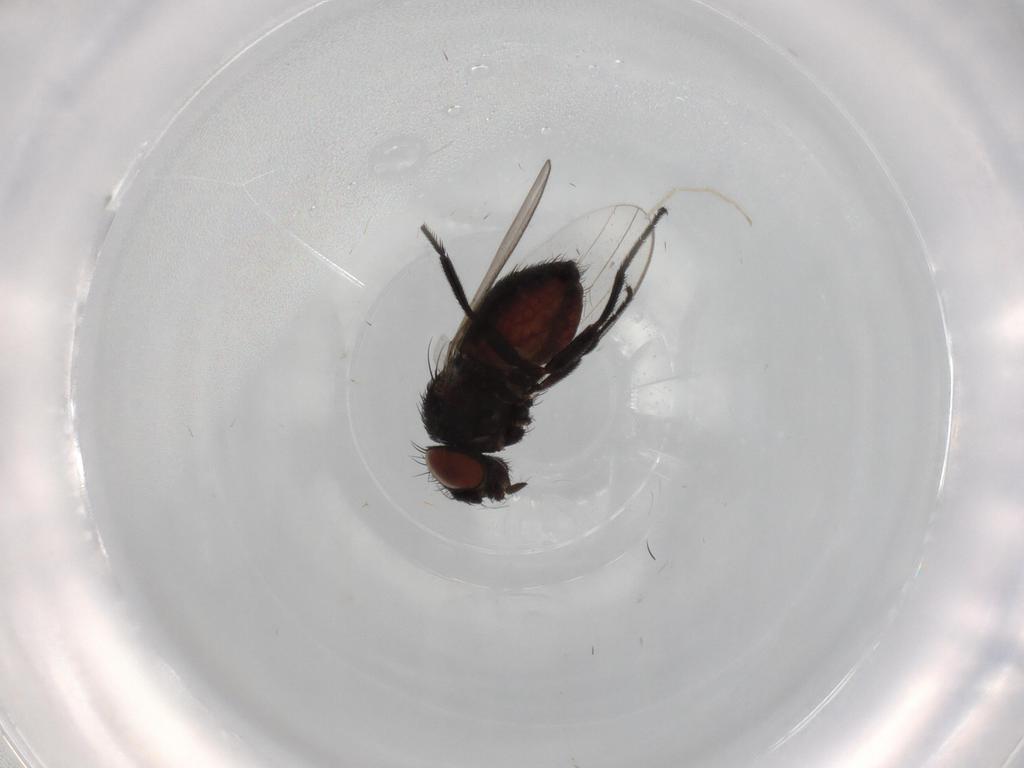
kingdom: Animalia
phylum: Arthropoda
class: Insecta
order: Diptera
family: Milichiidae
